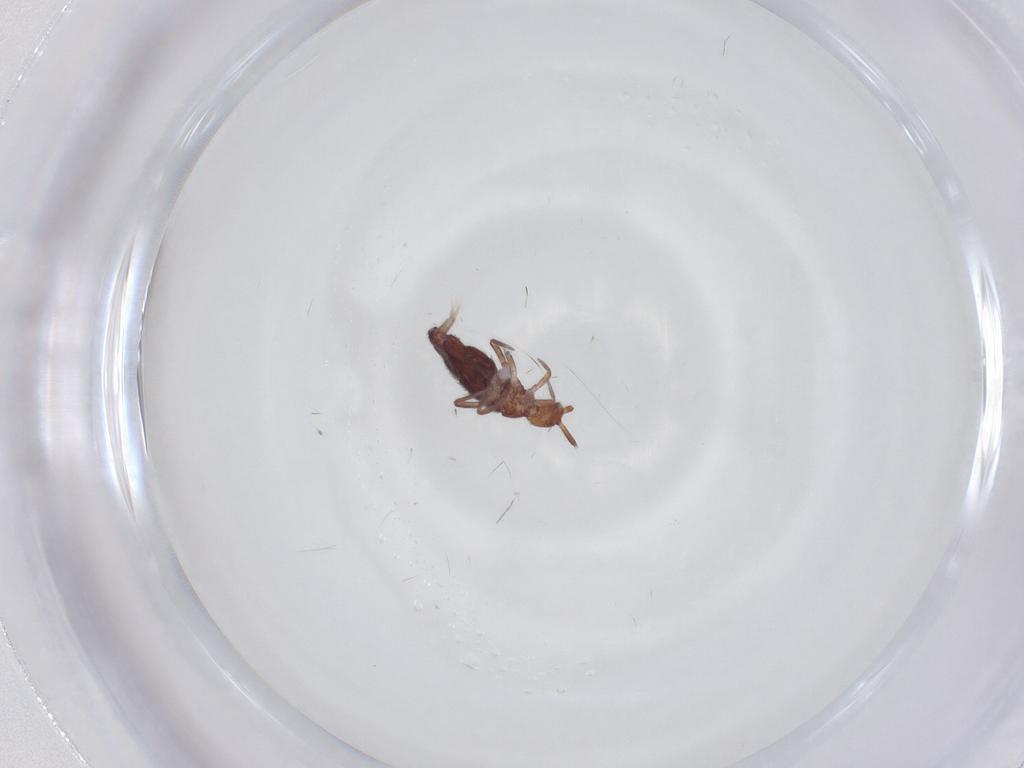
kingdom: Animalia
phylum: Arthropoda
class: Collembola
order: Entomobryomorpha
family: Entomobryidae
